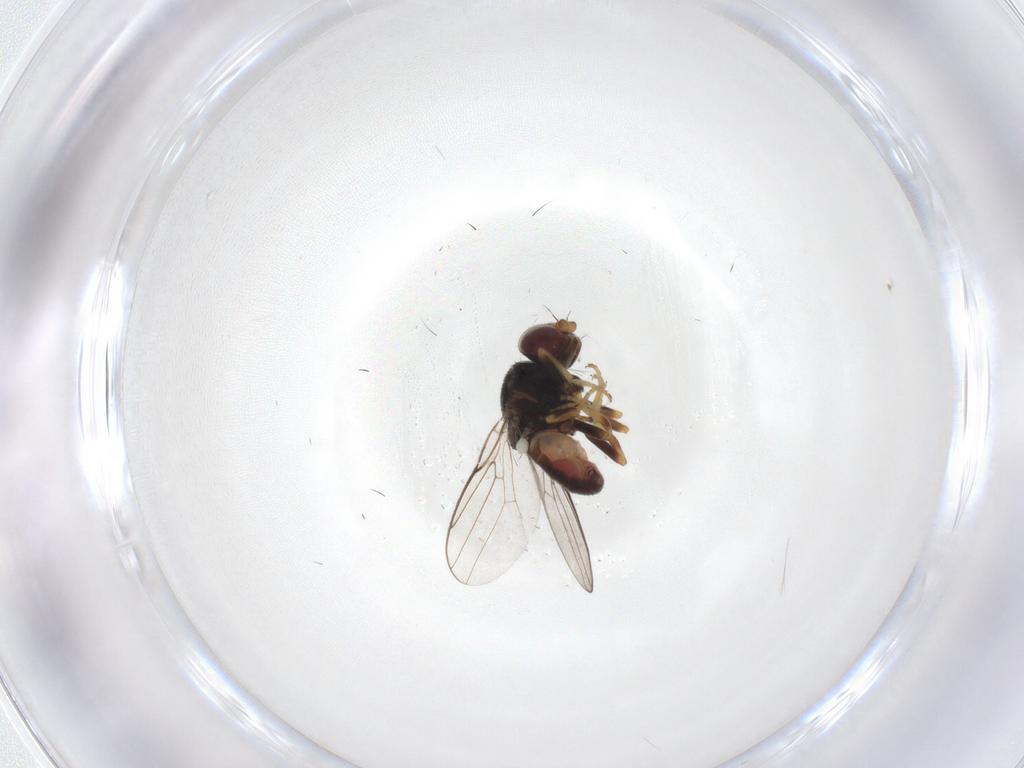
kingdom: Animalia
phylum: Arthropoda
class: Insecta
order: Diptera
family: Chloropidae
